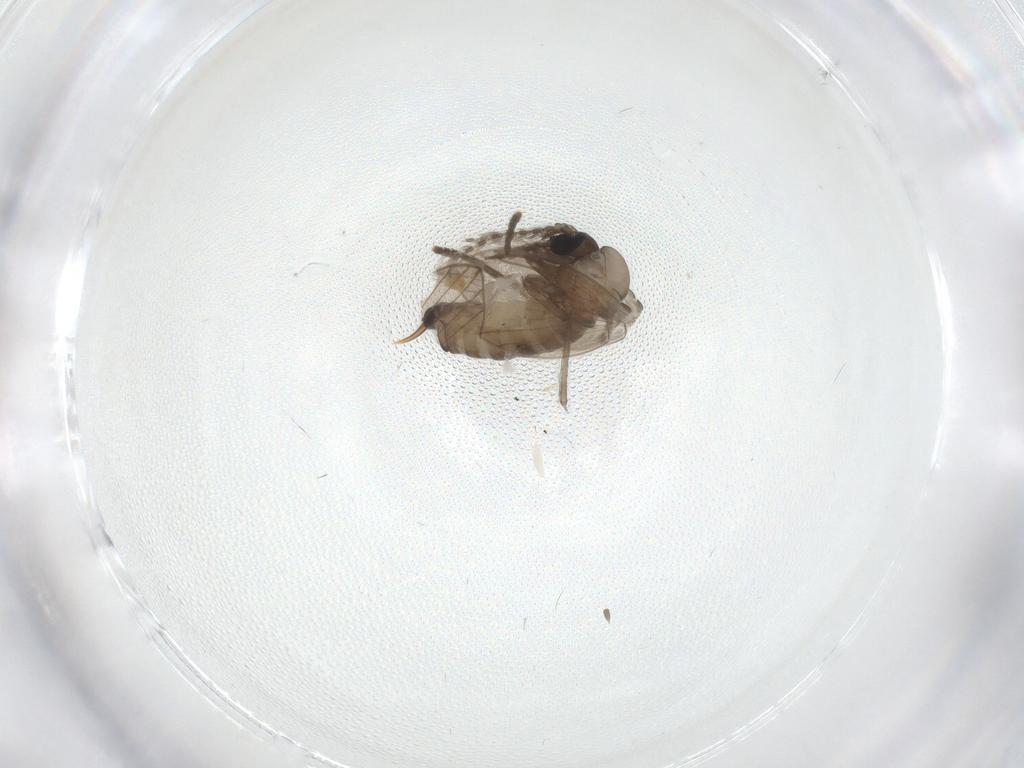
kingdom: Animalia
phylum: Arthropoda
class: Insecta
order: Diptera
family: Psychodidae
